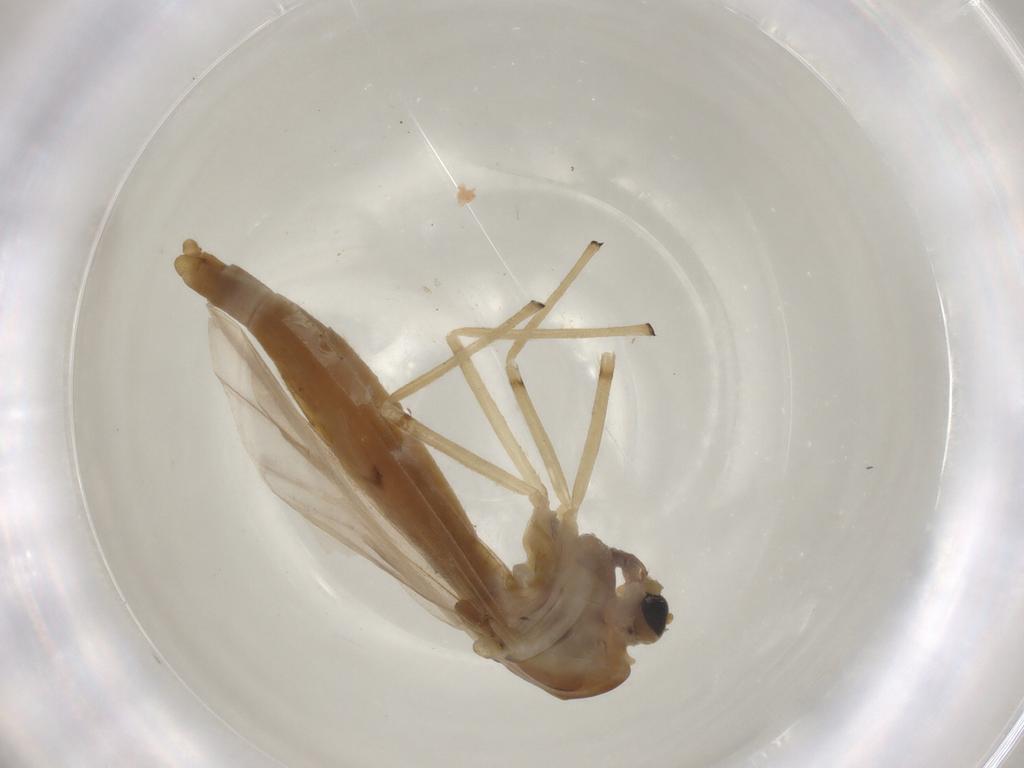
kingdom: Animalia
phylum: Arthropoda
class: Insecta
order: Diptera
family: Chironomidae
